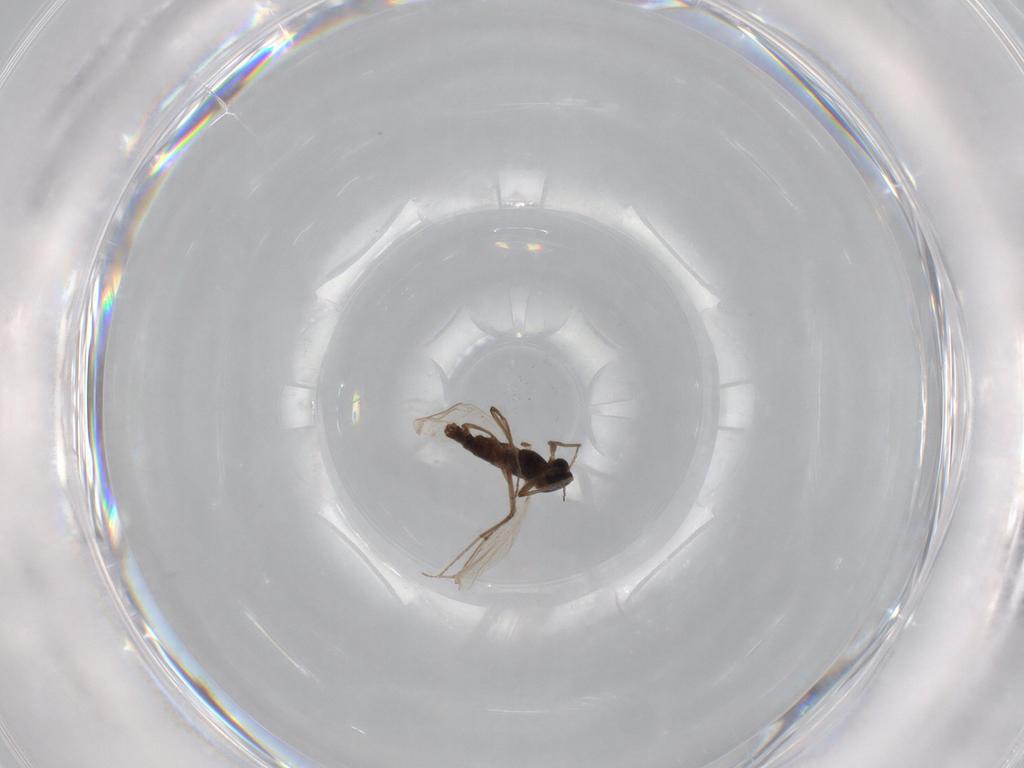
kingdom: Animalia
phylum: Arthropoda
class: Insecta
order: Diptera
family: Chironomidae
